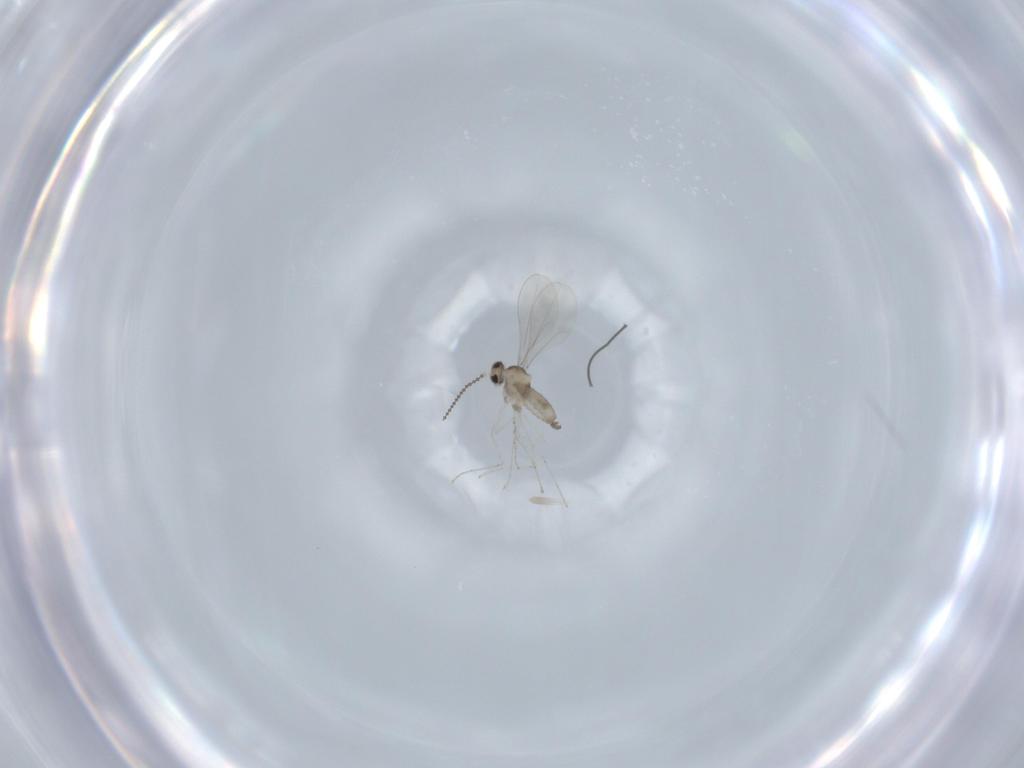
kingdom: Animalia
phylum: Arthropoda
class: Insecta
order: Diptera
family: Cecidomyiidae
